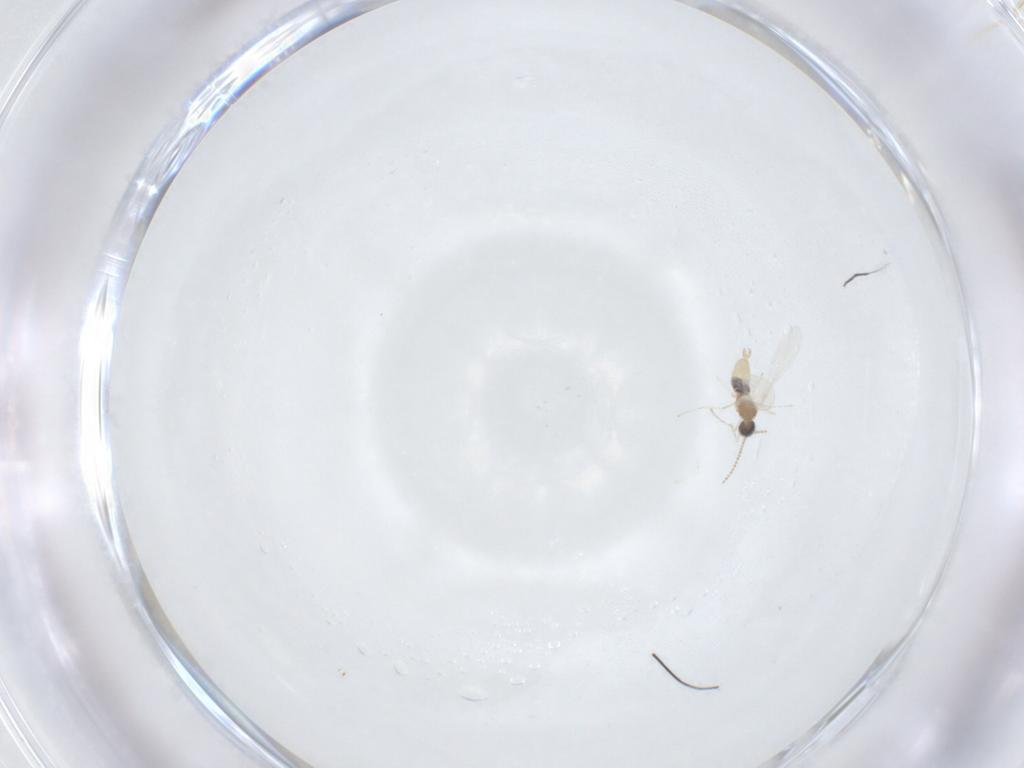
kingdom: Animalia
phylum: Arthropoda
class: Insecta
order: Diptera
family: Cecidomyiidae
